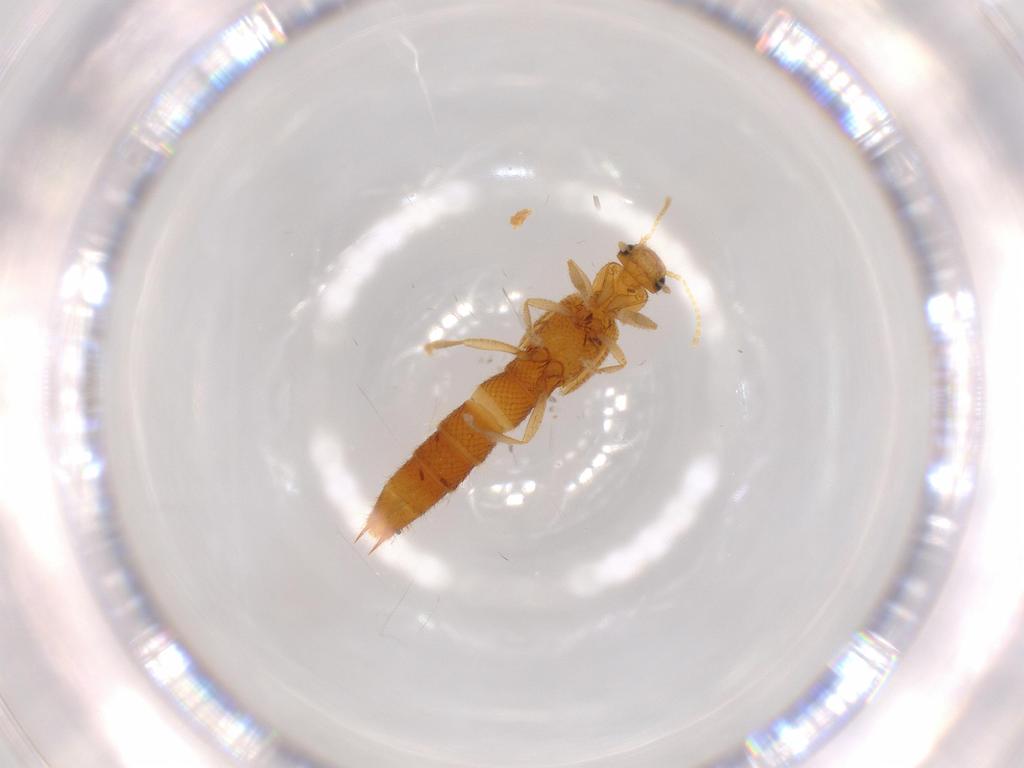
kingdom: Animalia
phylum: Arthropoda
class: Insecta
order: Coleoptera
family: Staphylinidae
